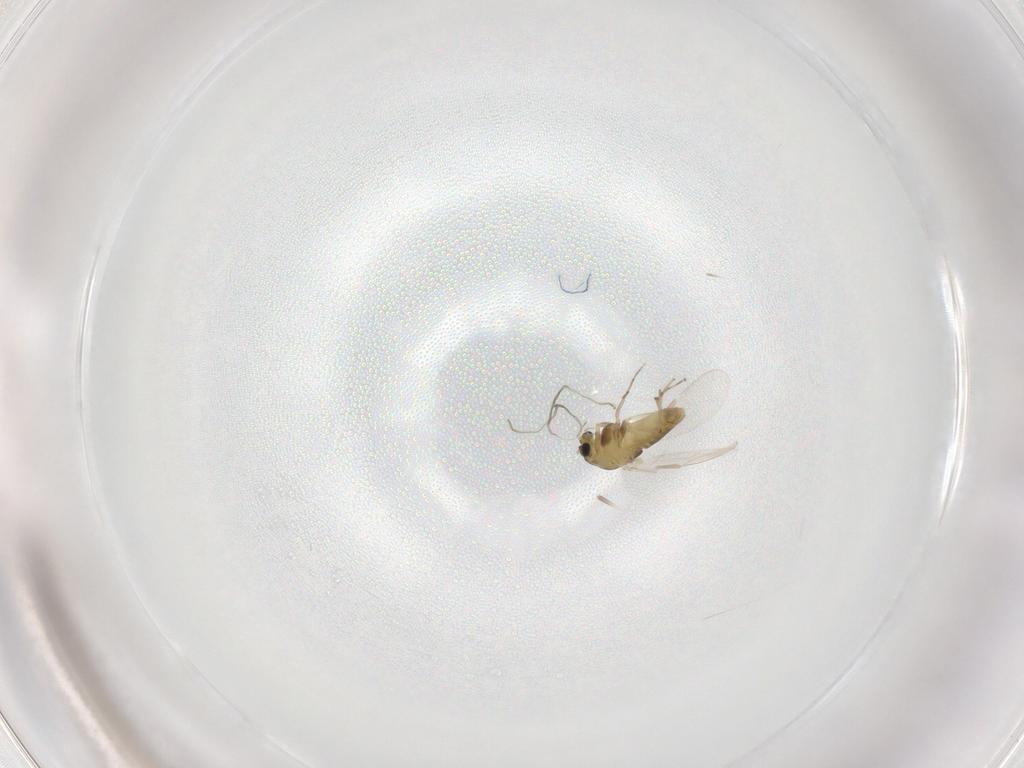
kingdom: Animalia
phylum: Arthropoda
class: Insecta
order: Diptera
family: Chironomidae
